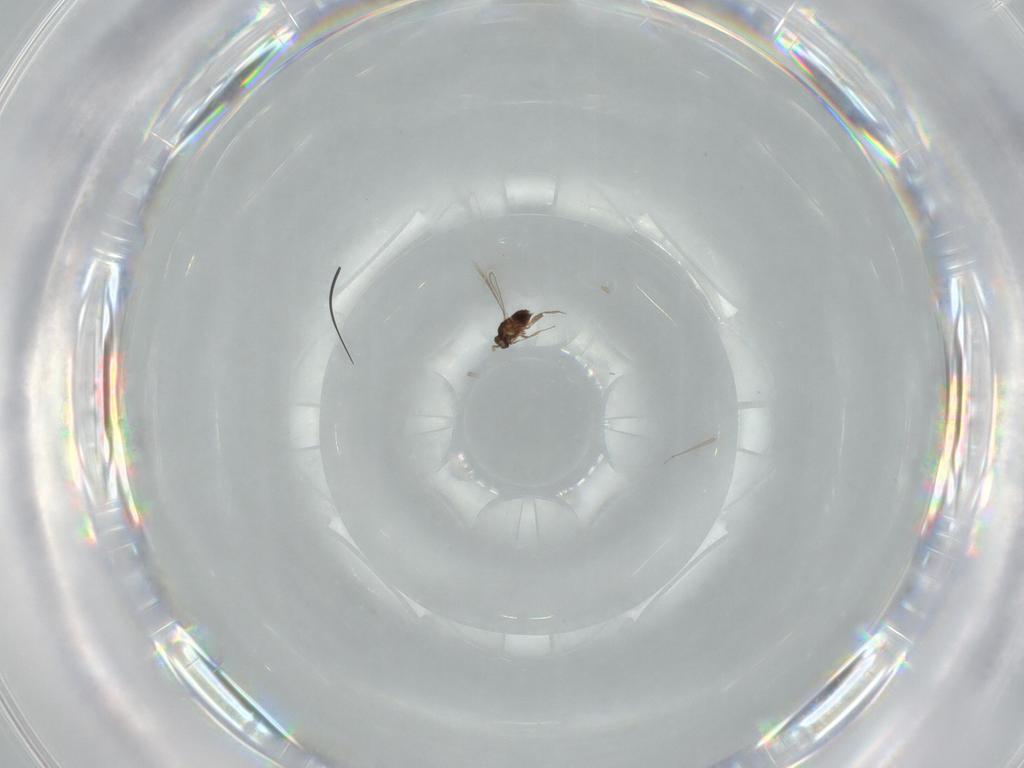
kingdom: Animalia
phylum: Arthropoda
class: Insecta
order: Hymenoptera
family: Mymaridae
